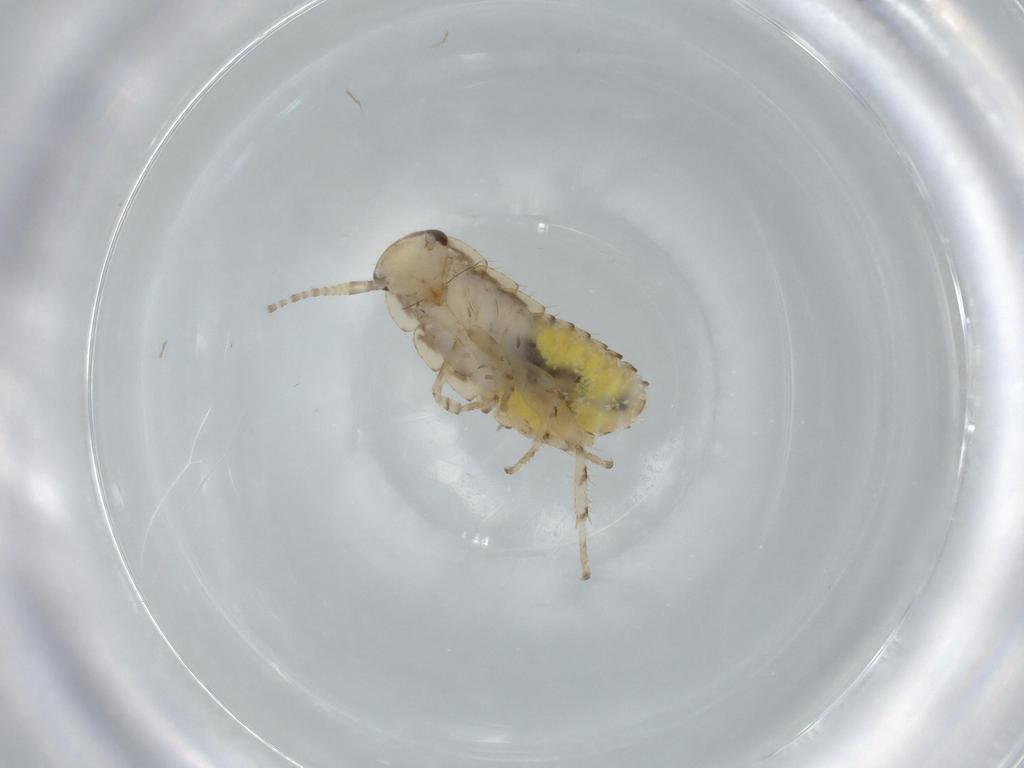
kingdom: Animalia
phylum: Arthropoda
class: Insecta
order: Blattodea
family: Ectobiidae
